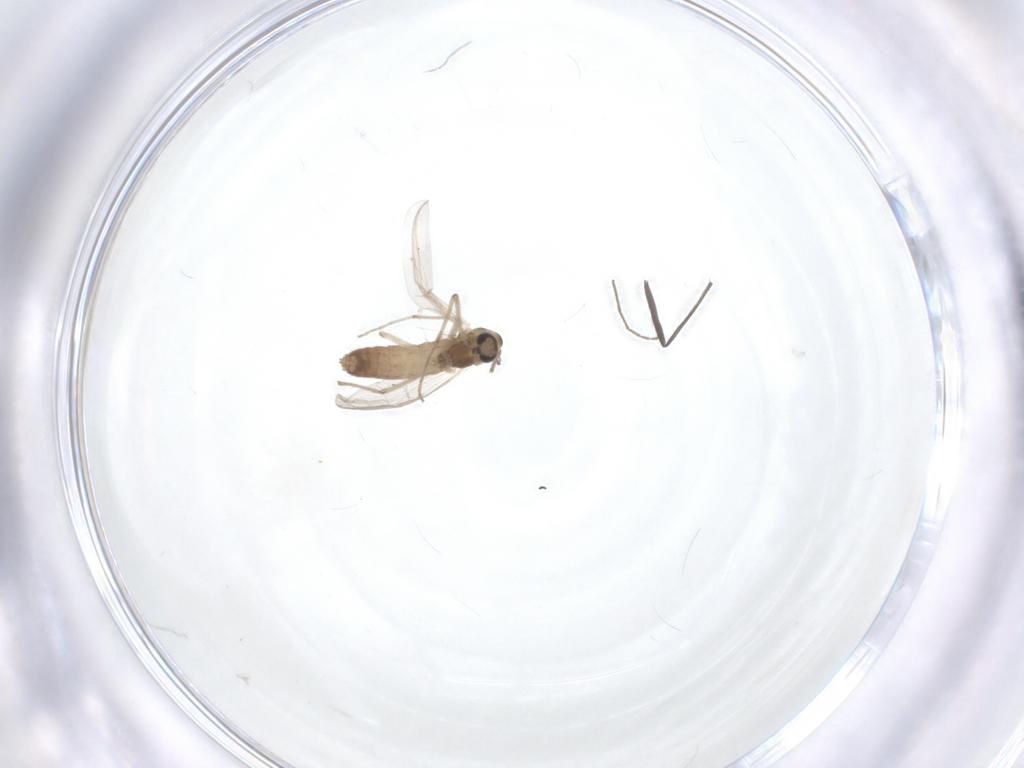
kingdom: Animalia
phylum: Arthropoda
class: Insecta
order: Diptera
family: Chironomidae
